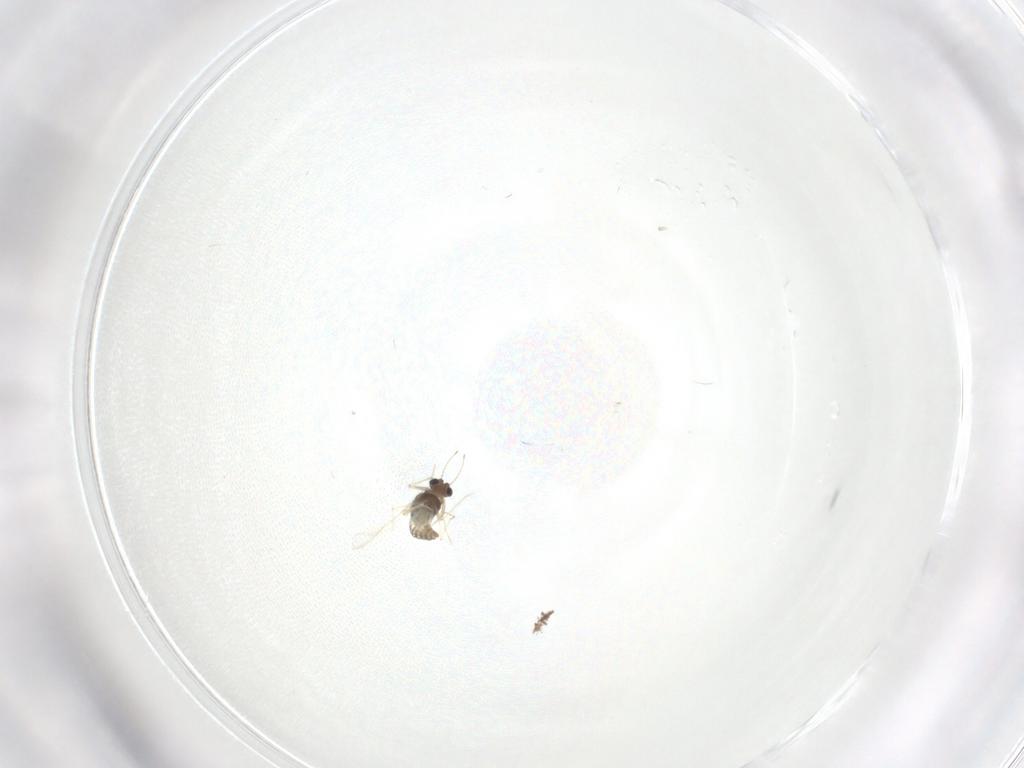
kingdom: Animalia
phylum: Arthropoda
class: Insecta
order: Diptera
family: Chironomidae
